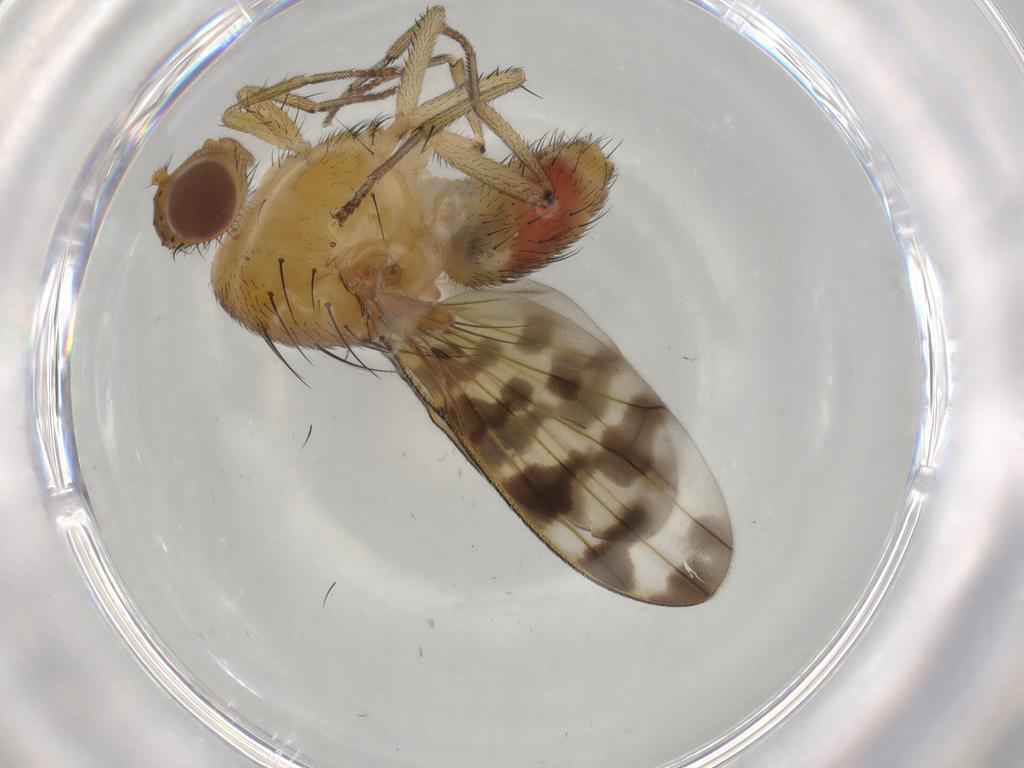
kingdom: Animalia
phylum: Arthropoda
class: Insecta
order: Diptera
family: Chironomidae
